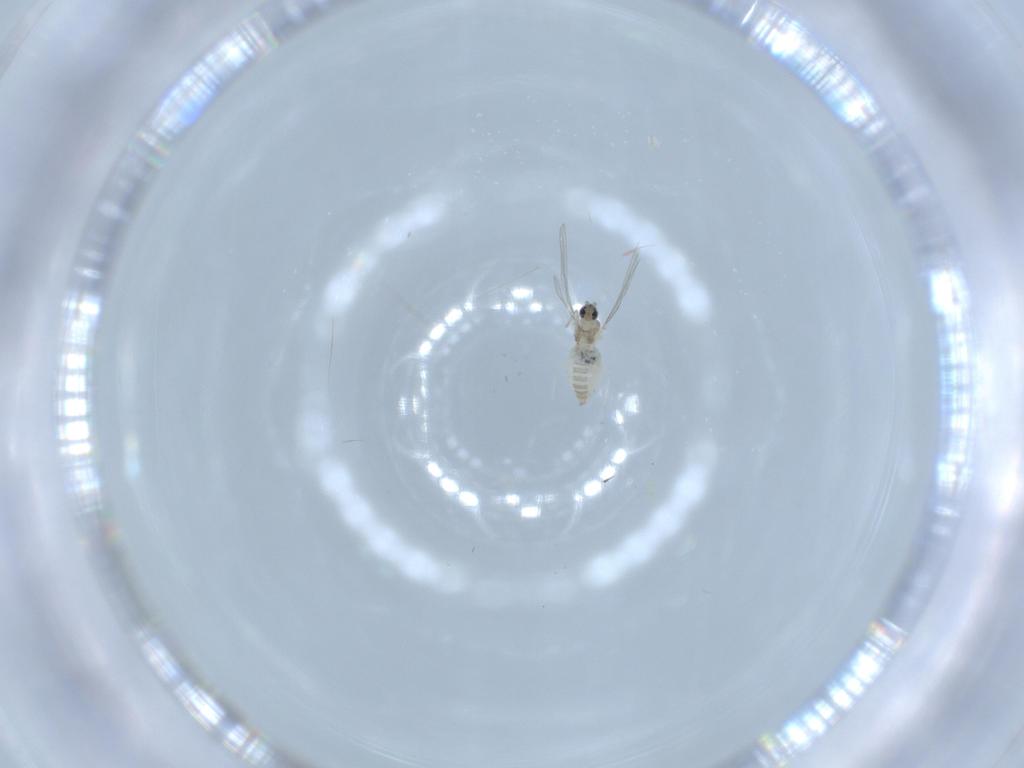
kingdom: Animalia
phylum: Arthropoda
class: Insecta
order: Diptera
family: Cecidomyiidae
